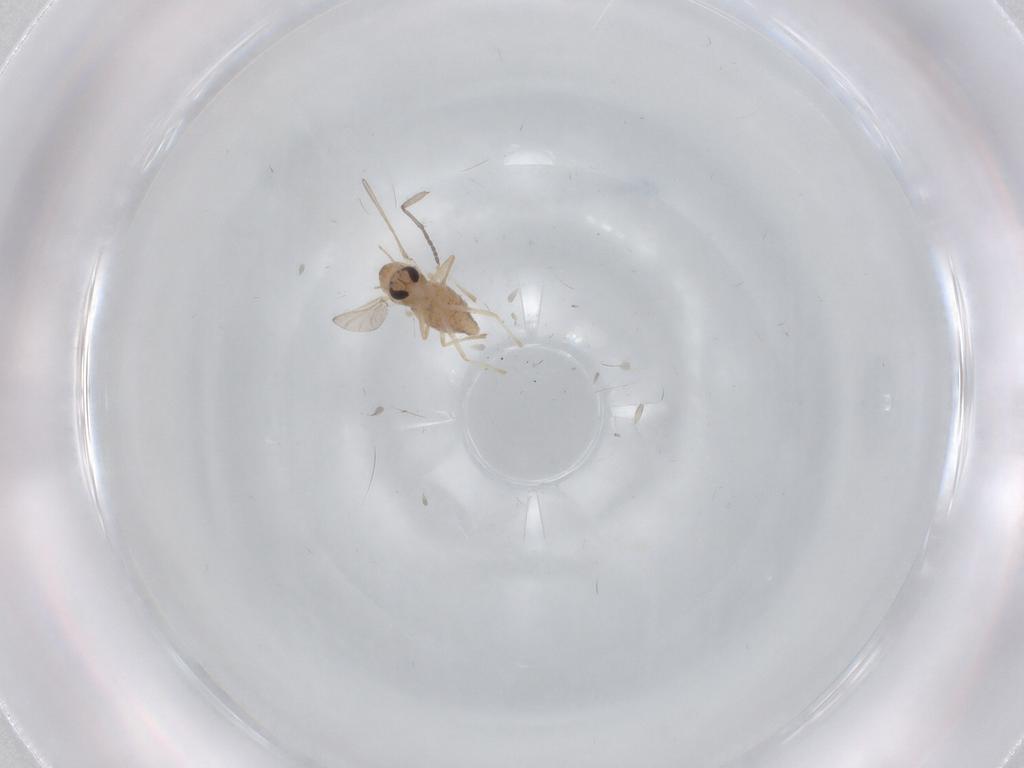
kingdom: Animalia
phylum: Arthropoda
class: Insecta
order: Diptera
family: Chironomidae
